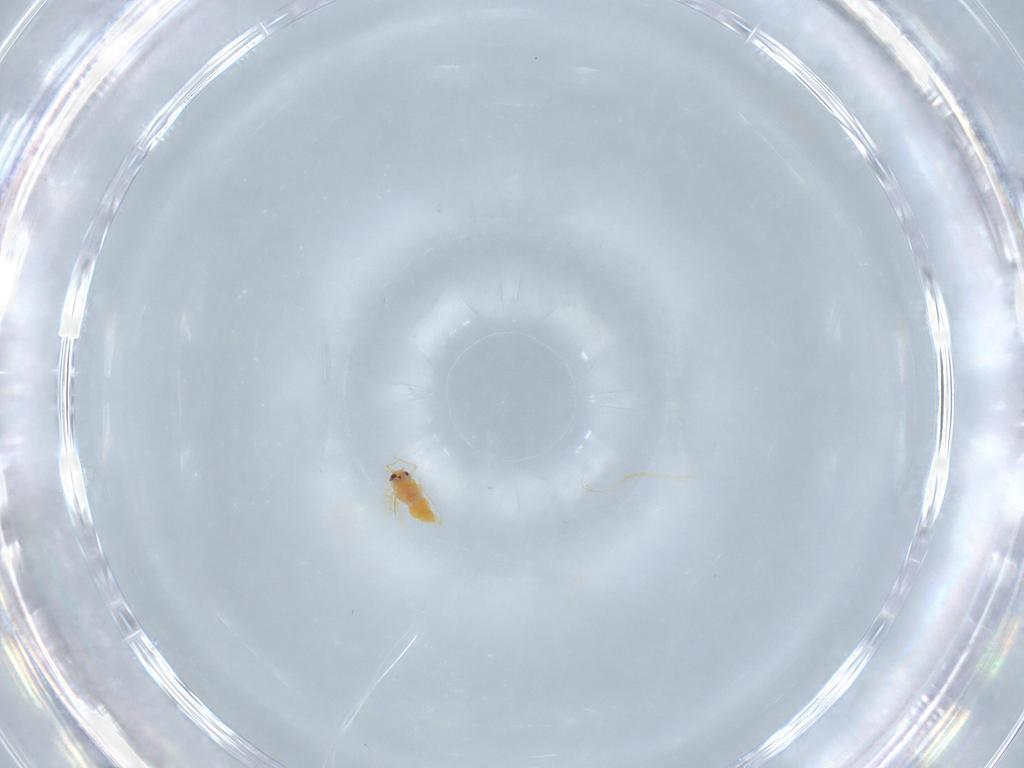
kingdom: Animalia
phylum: Arthropoda
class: Insecta
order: Hemiptera
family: Aleyrodidae
